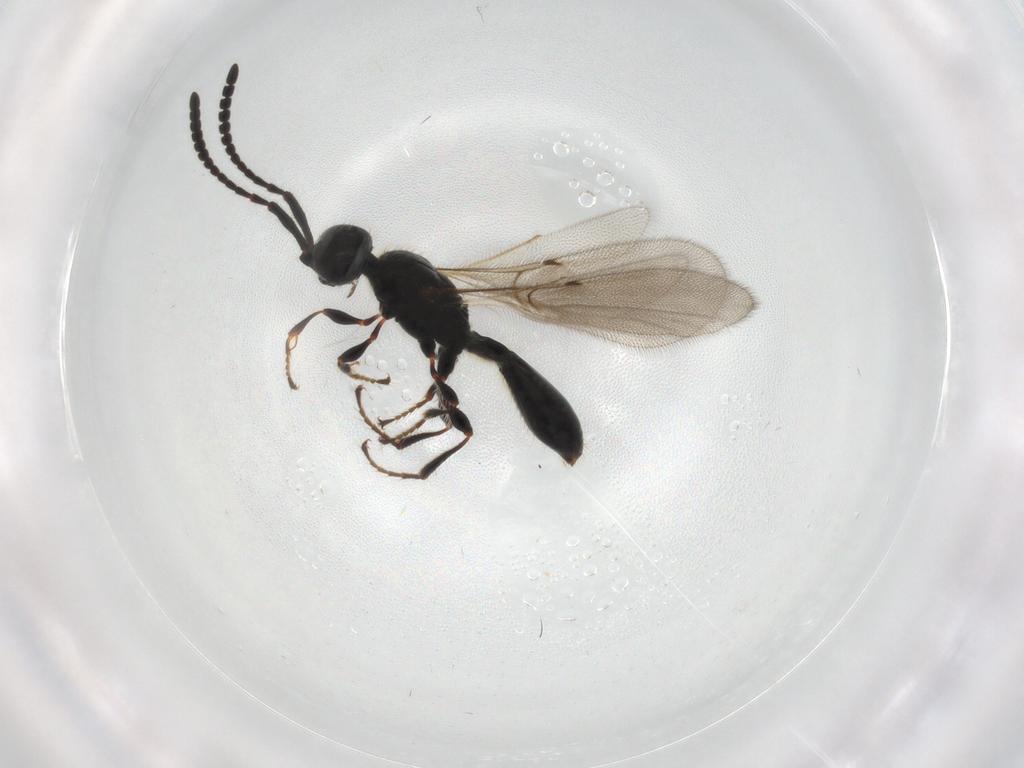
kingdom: Animalia
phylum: Arthropoda
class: Insecta
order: Hymenoptera
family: Diapriidae
